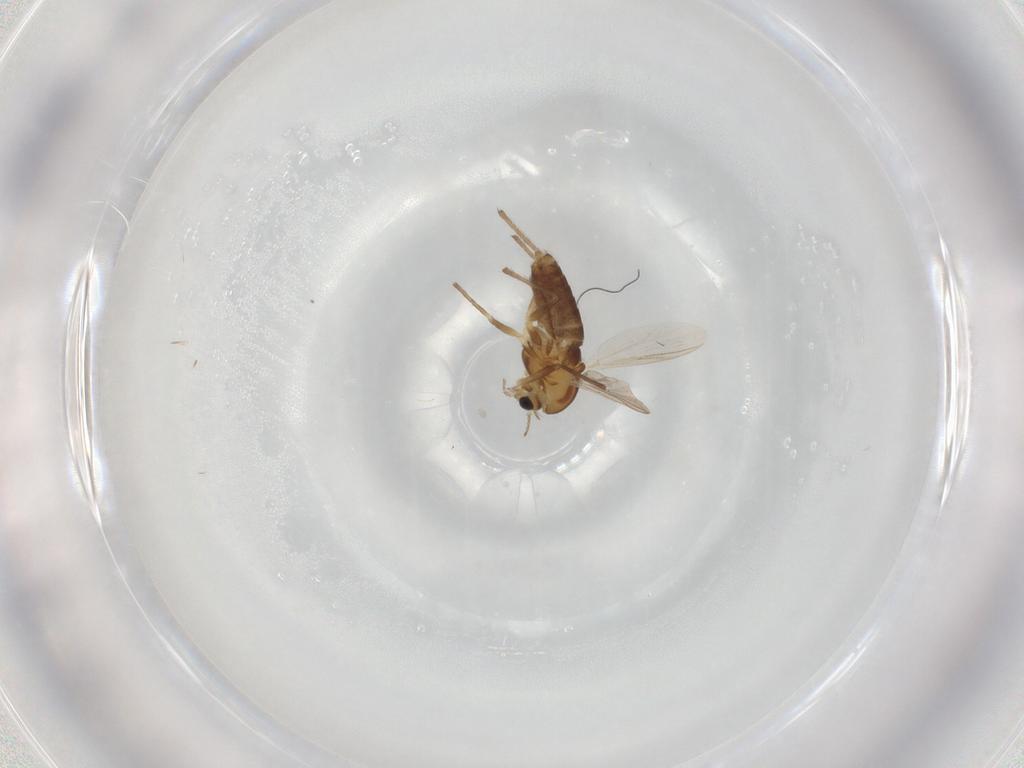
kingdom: Animalia
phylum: Arthropoda
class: Insecta
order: Diptera
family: Chironomidae
